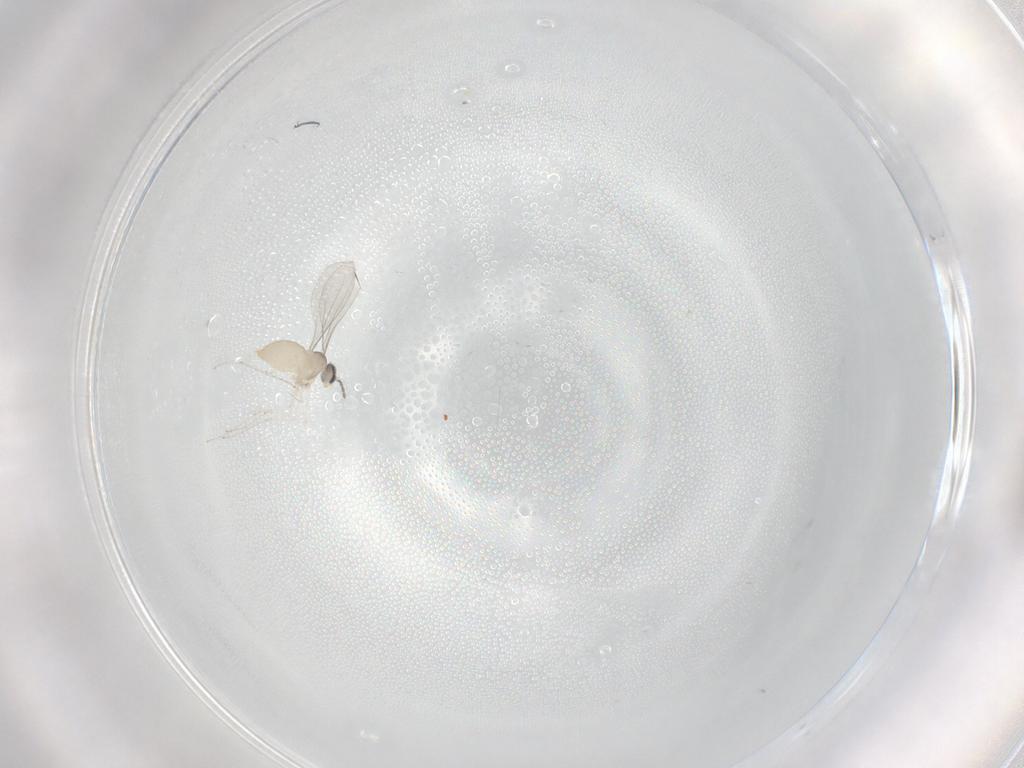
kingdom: Animalia
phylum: Arthropoda
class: Insecta
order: Diptera
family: Cecidomyiidae
